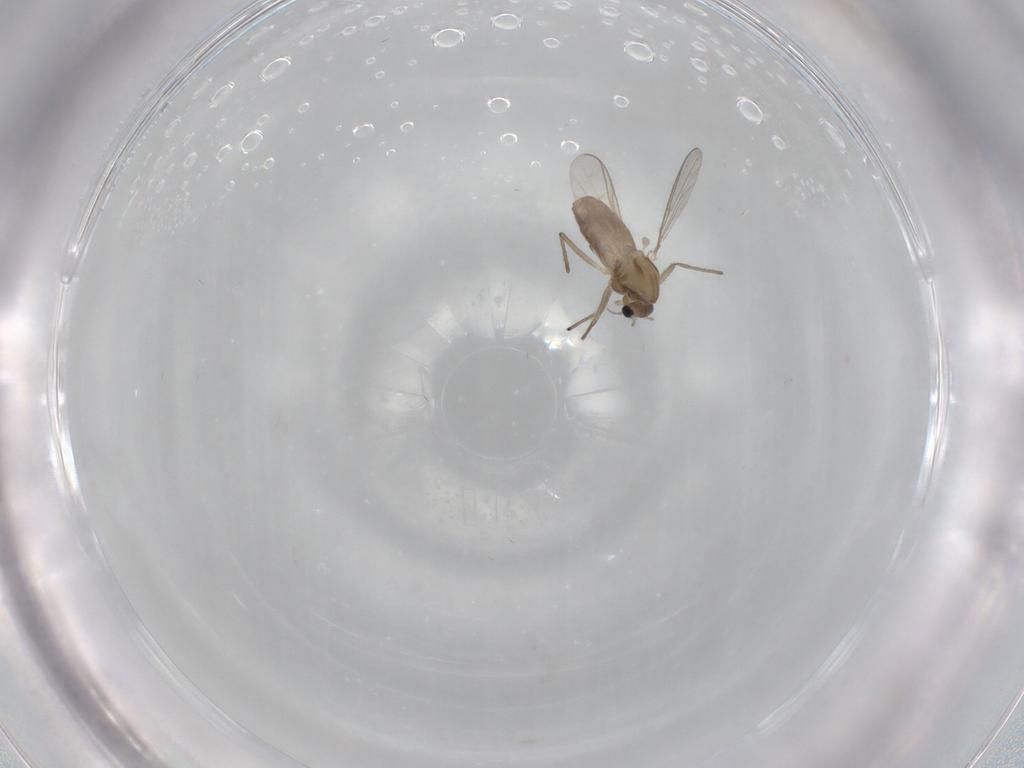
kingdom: Animalia
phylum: Arthropoda
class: Insecta
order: Diptera
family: Chironomidae
